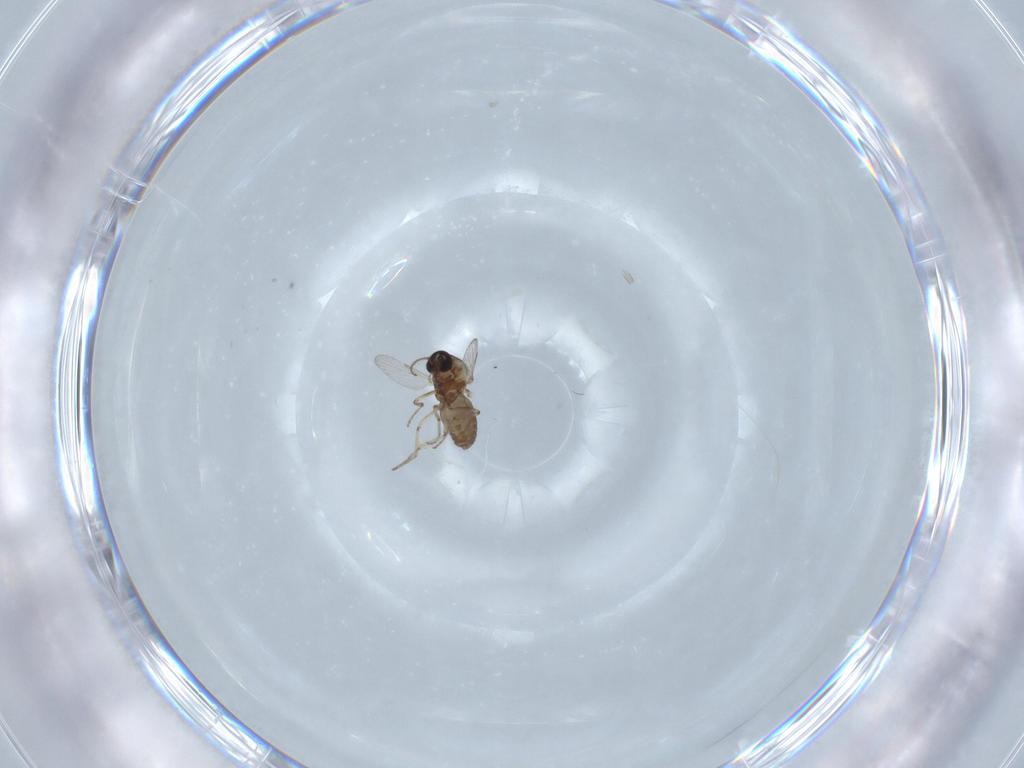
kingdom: Animalia
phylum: Arthropoda
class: Insecta
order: Diptera
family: Ceratopogonidae
